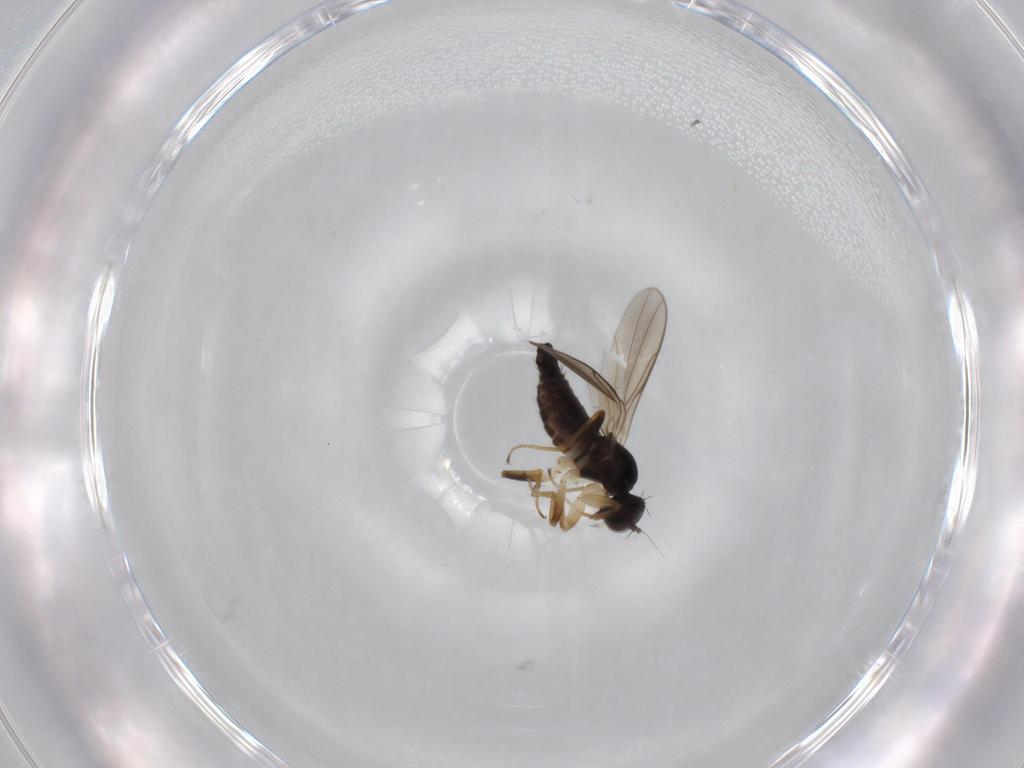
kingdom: Animalia
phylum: Arthropoda
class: Insecta
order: Diptera
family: Hybotidae
